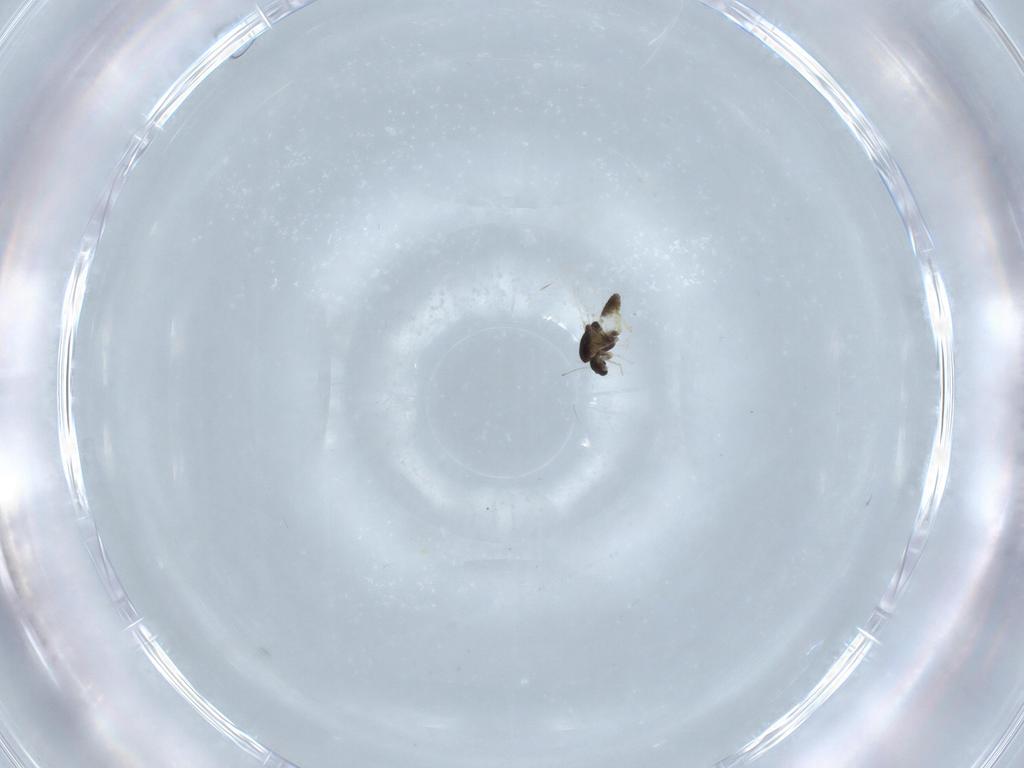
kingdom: Animalia
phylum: Arthropoda
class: Insecta
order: Diptera
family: Chironomidae
